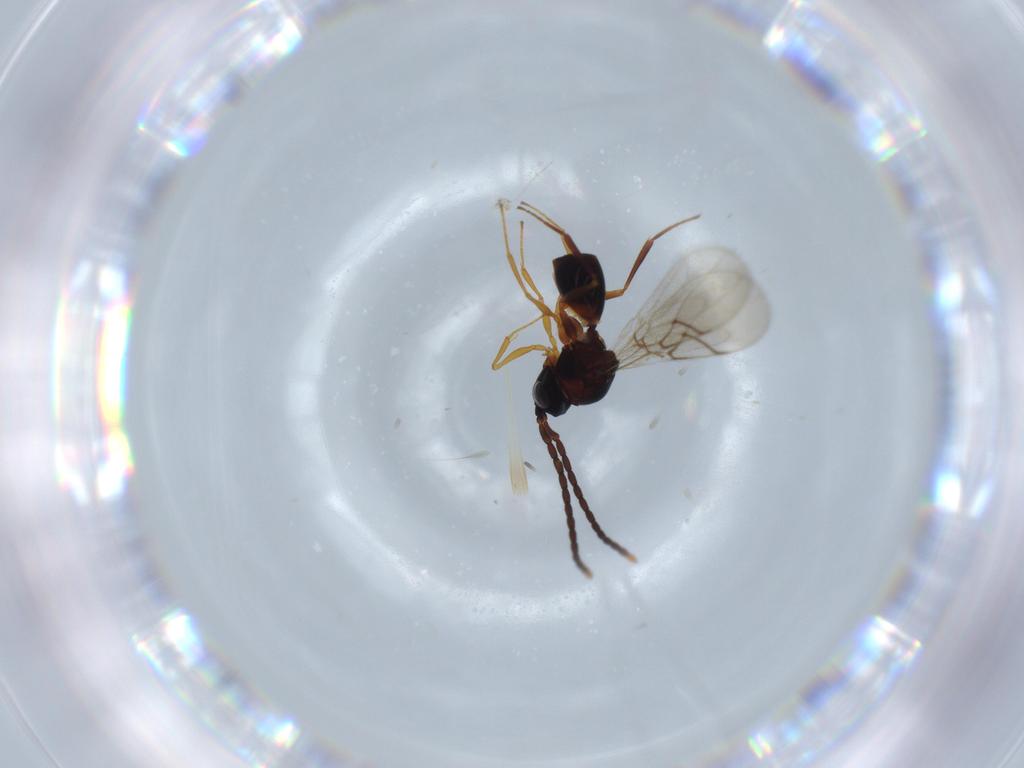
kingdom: Animalia
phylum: Arthropoda
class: Insecta
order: Hymenoptera
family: Figitidae
